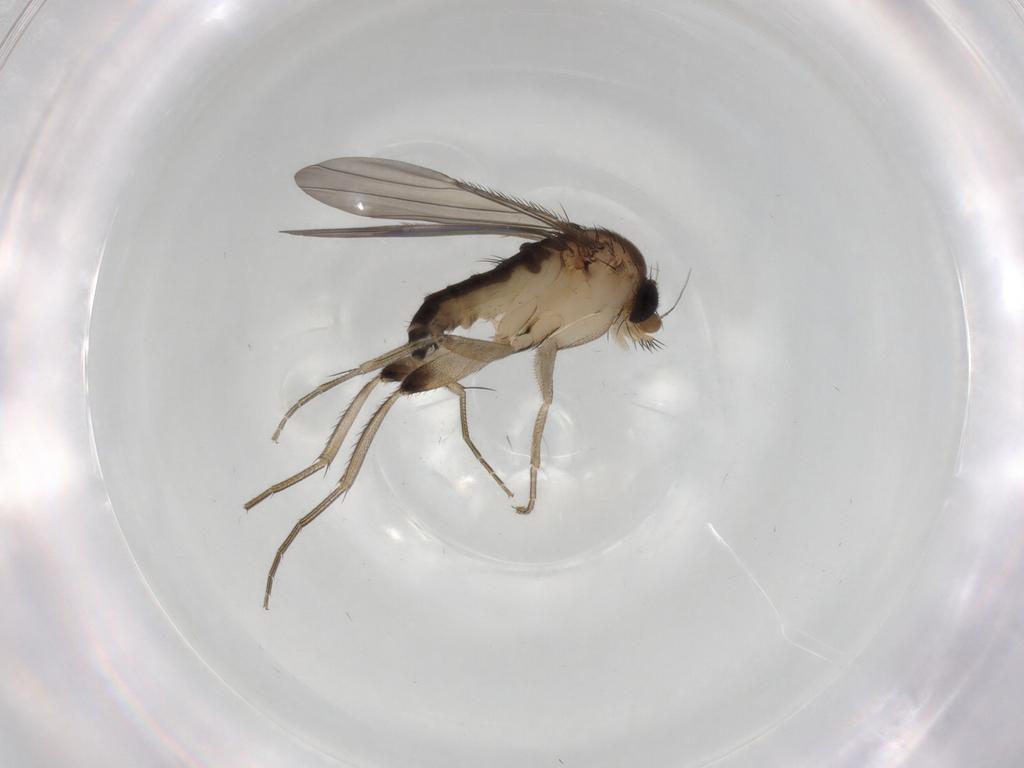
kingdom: Animalia
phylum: Arthropoda
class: Insecta
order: Diptera
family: Phoridae
